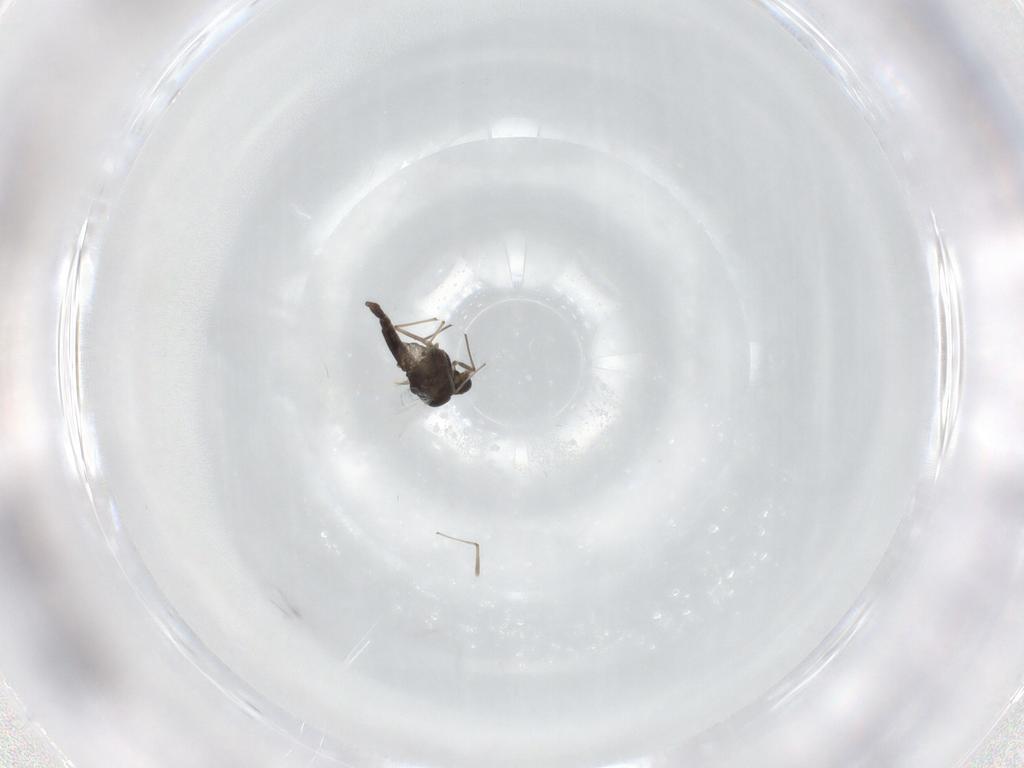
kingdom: Animalia
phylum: Arthropoda
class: Insecta
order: Diptera
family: Chironomidae
